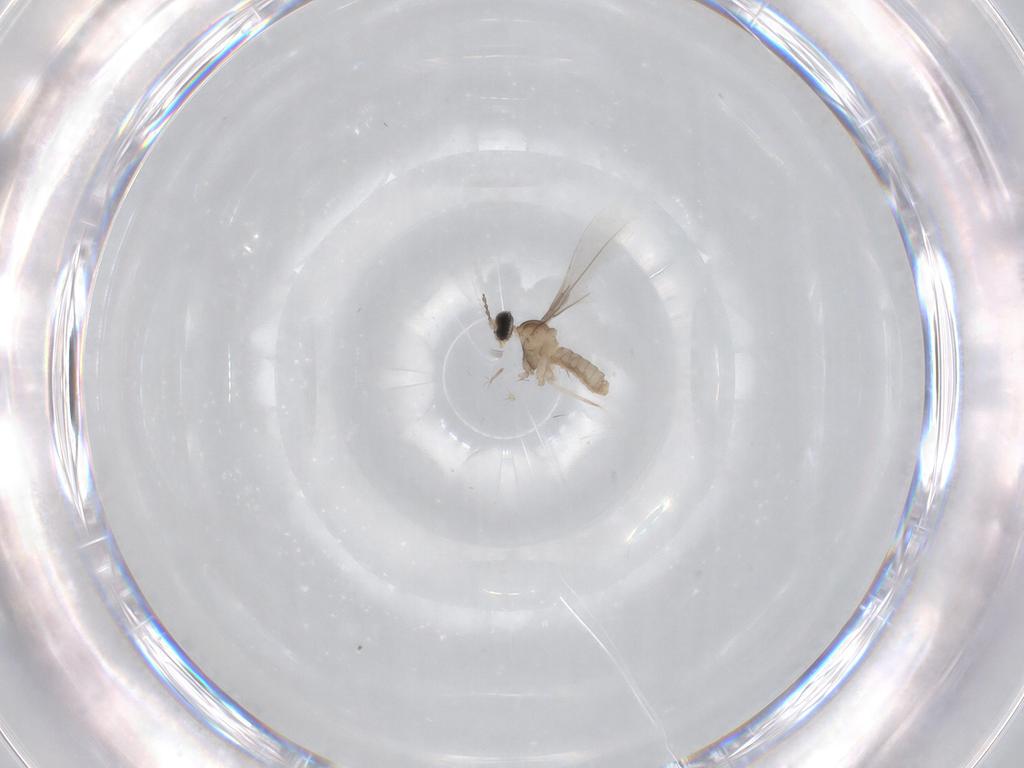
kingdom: Animalia
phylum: Arthropoda
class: Insecta
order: Diptera
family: Cecidomyiidae
